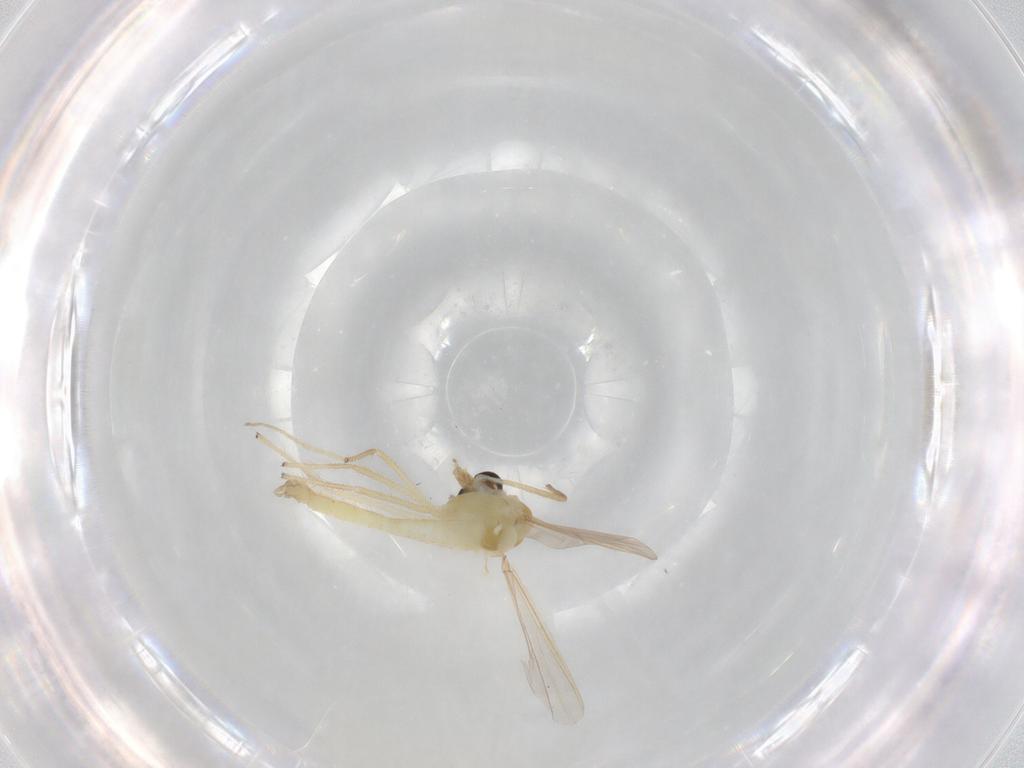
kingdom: Animalia
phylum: Arthropoda
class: Insecta
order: Diptera
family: Chironomidae
